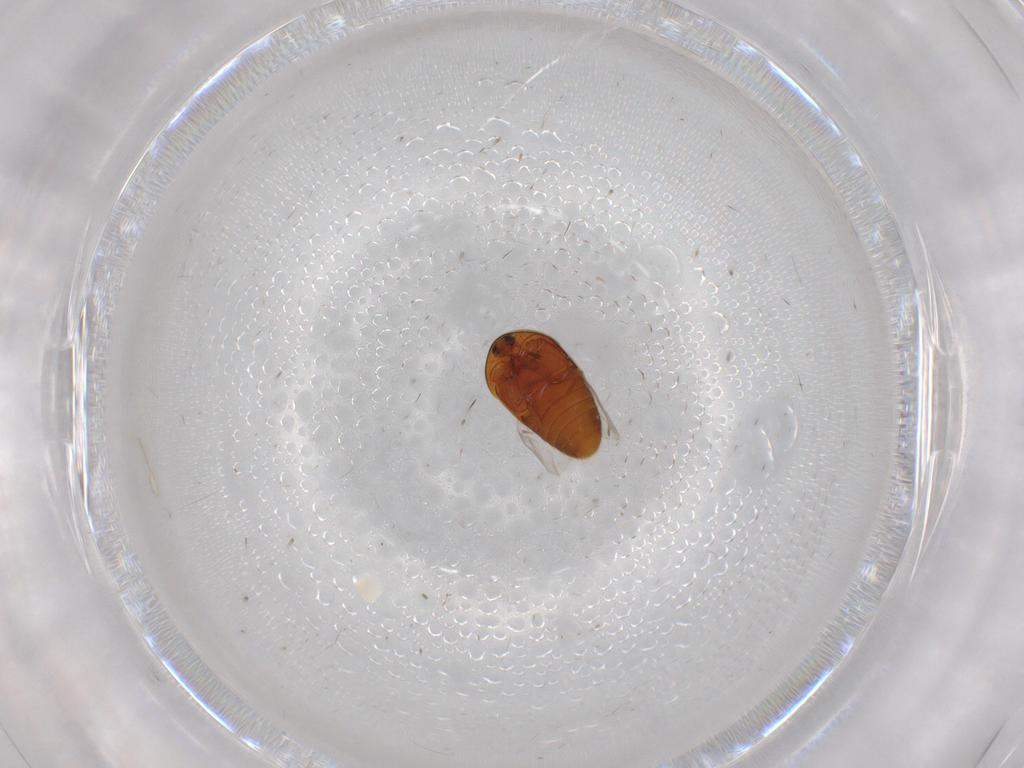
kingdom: Animalia
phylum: Arthropoda
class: Insecta
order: Coleoptera
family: Corylophidae
